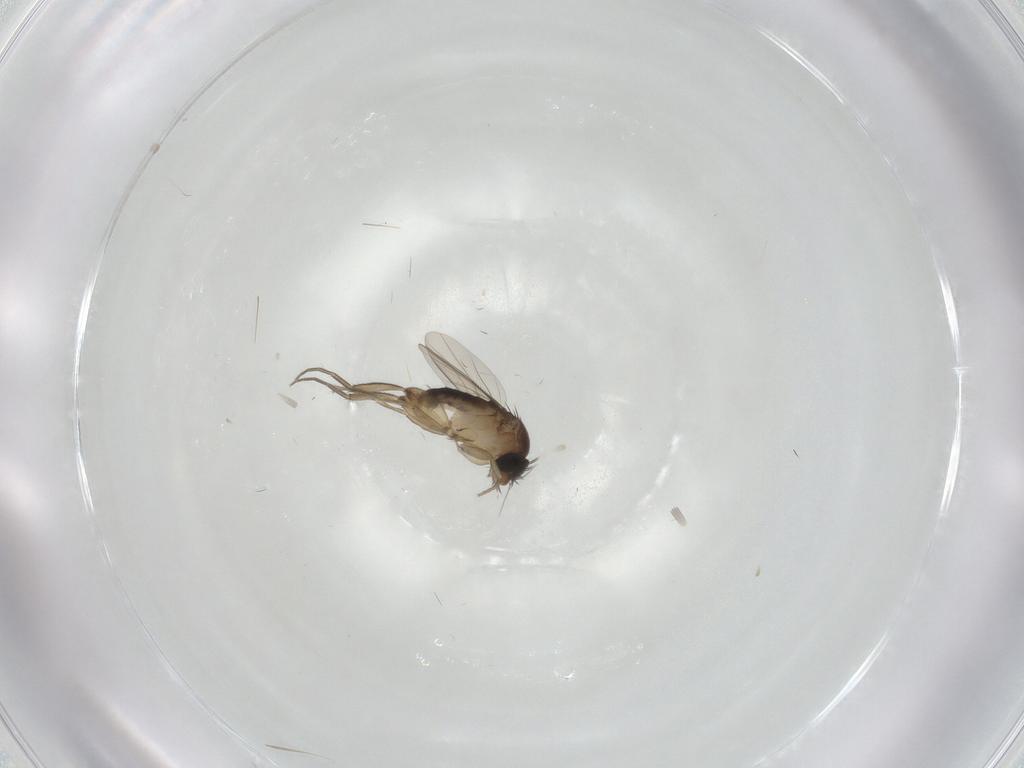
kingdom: Animalia
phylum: Arthropoda
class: Insecta
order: Diptera
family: Phoridae
